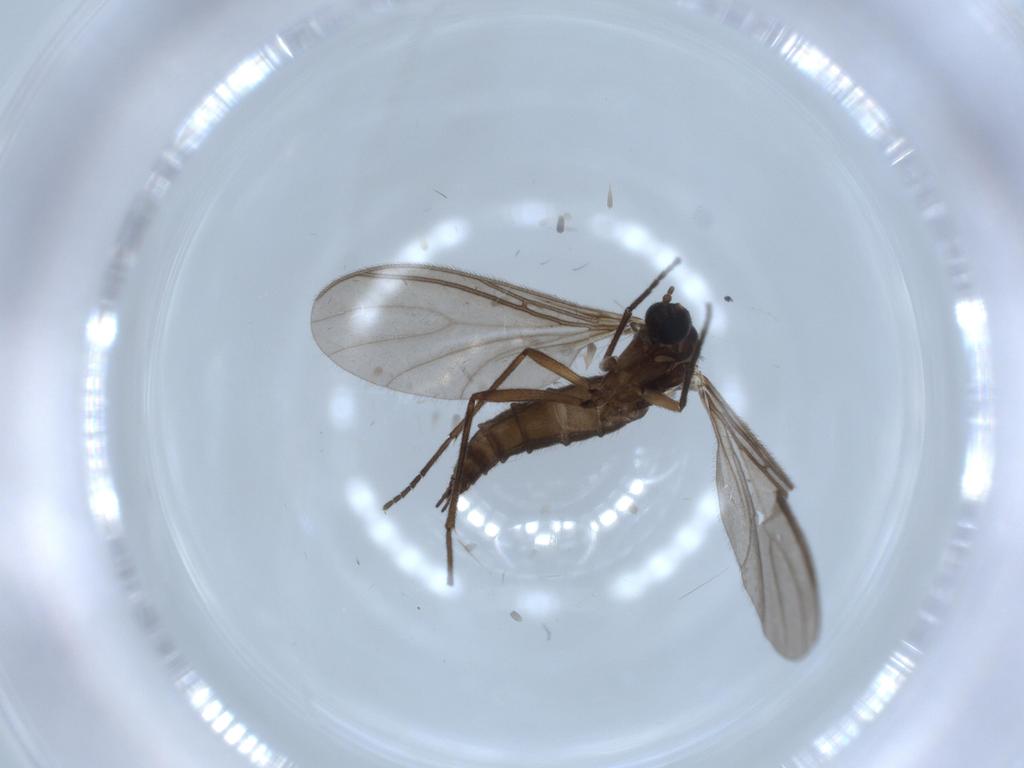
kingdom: Animalia
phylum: Arthropoda
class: Insecta
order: Diptera
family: Sciaridae
